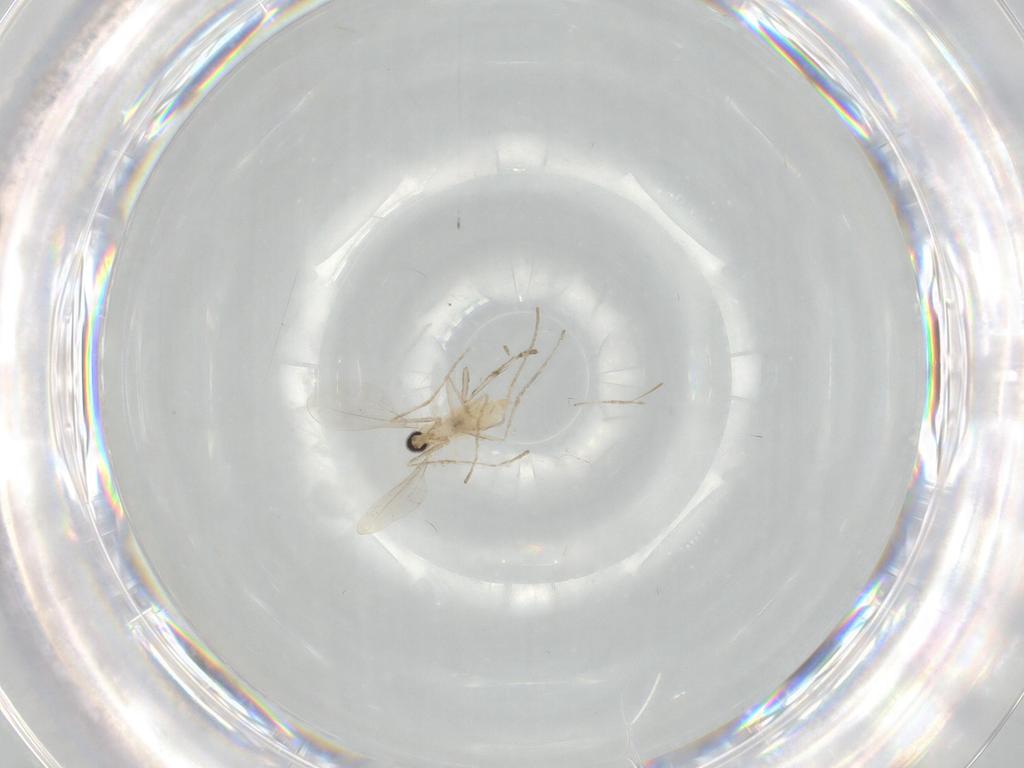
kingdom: Animalia
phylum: Arthropoda
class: Insecta
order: Diptera
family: Cecidomyiidae
